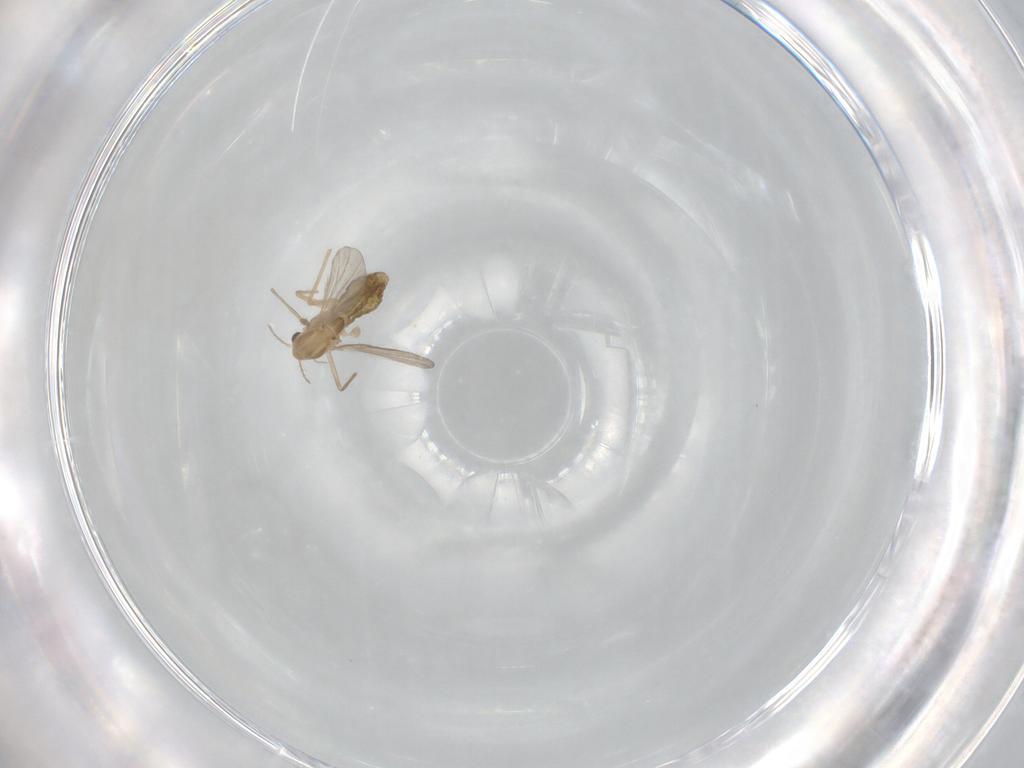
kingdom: Animalia
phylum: Arthropoda
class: Insecta
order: Diptera
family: Chironomidae
